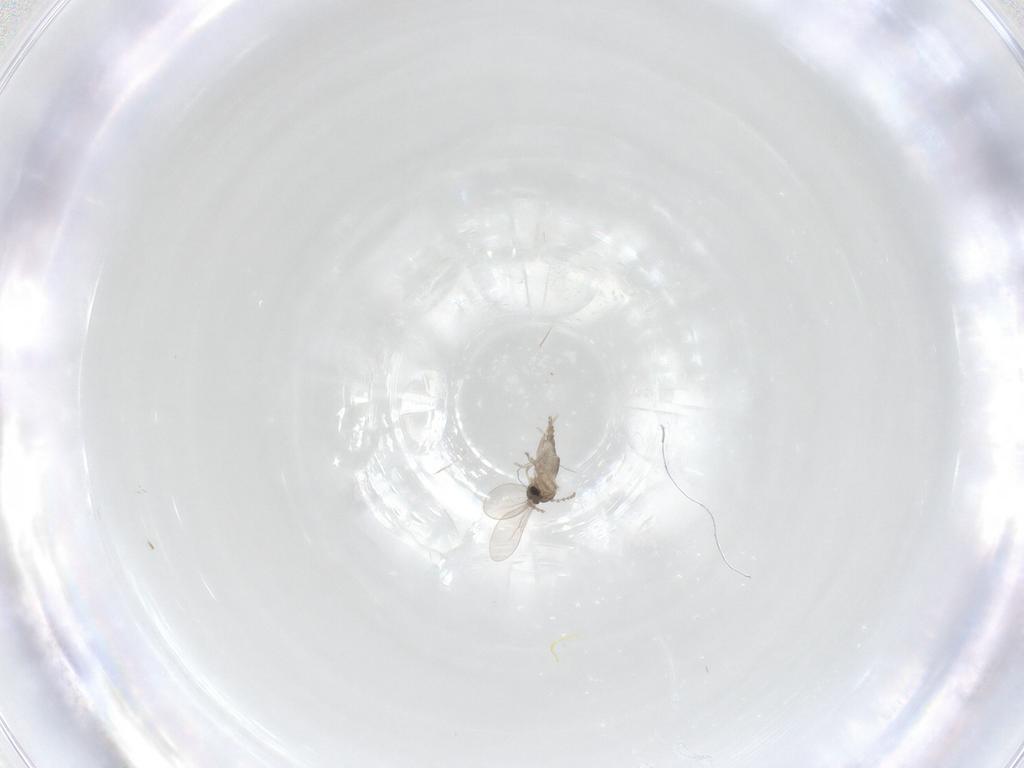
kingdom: Animalia
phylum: Arthropoda
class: Insecta
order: Diptera
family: Cecidomyiidae
